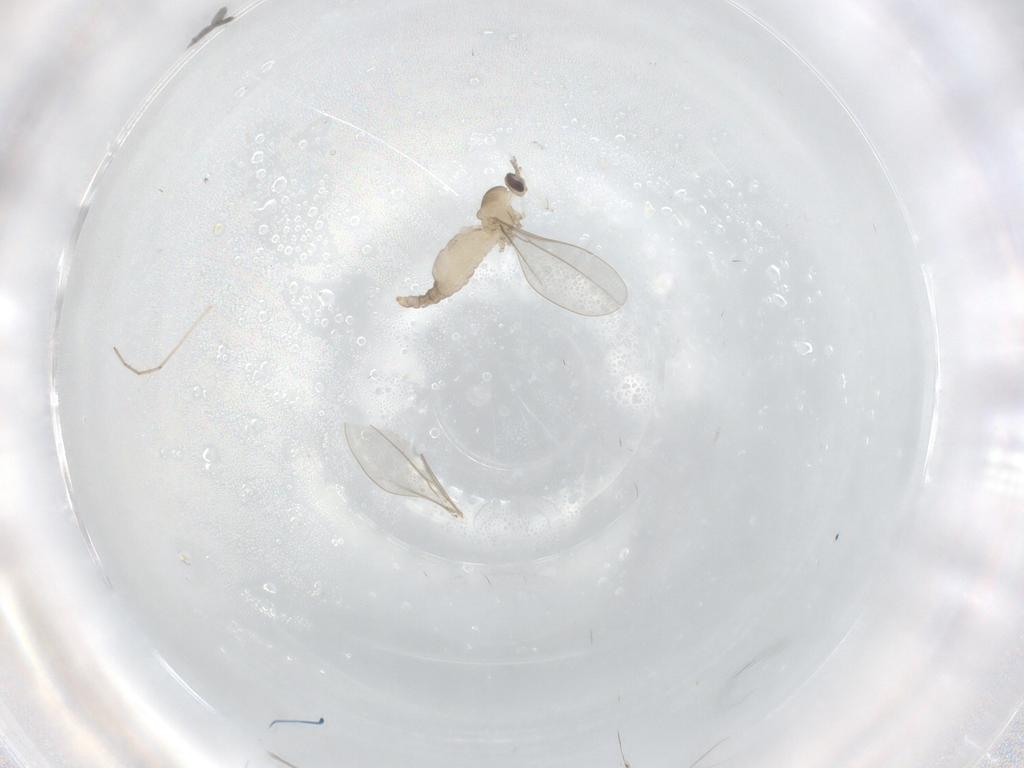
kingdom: Animalia
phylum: Arthropoda
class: Insecta
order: Diptera
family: Cecidomyiidae
